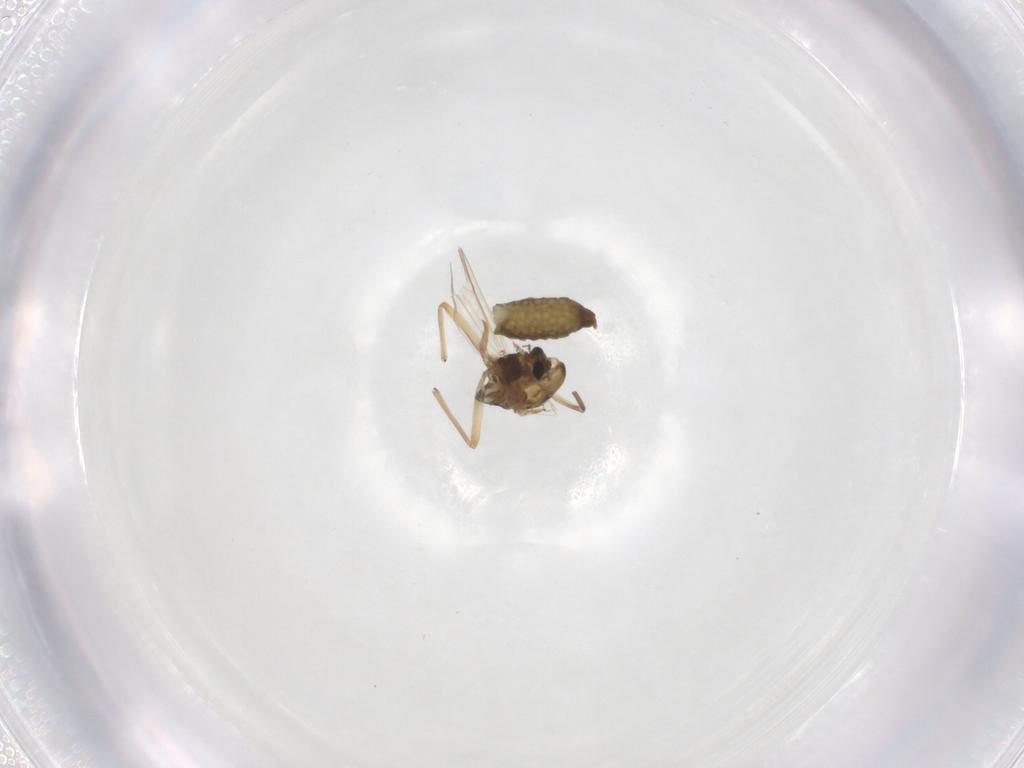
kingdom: Animalia
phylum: Arthropoda
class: Insecta
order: Diptera
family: Chironomidae
